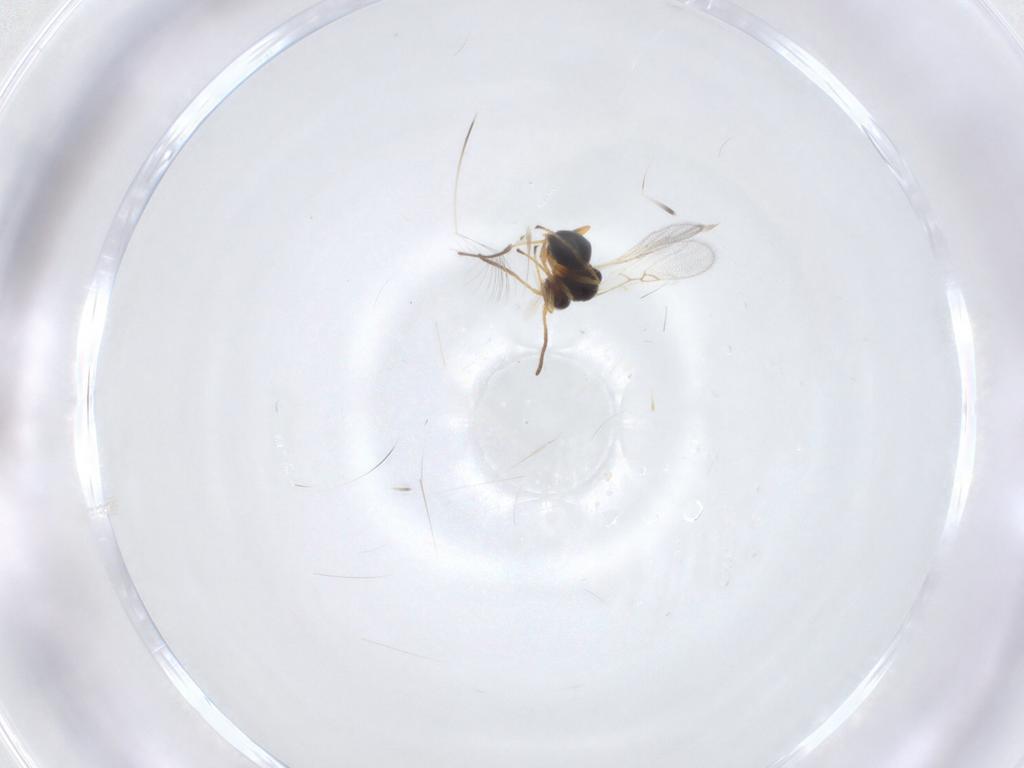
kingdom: Animalia
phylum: Arthropoda
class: Insecta
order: Hymenoptera
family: Figitidae
